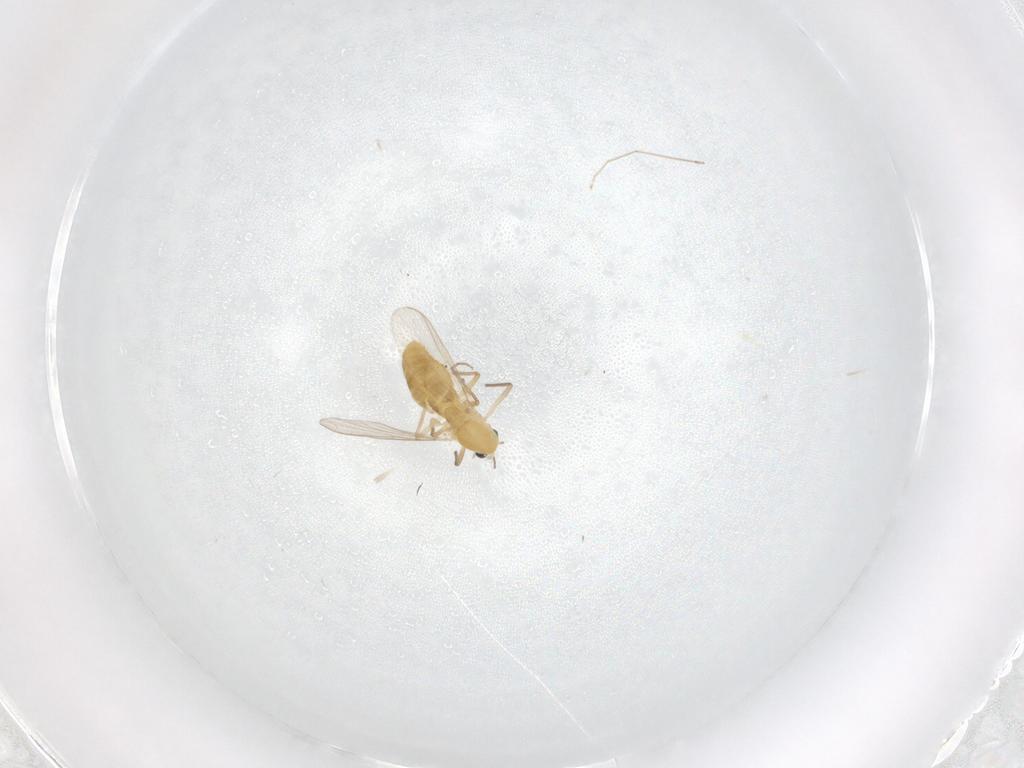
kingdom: Animalia
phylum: Arthropoda
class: Insecta
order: Diptera
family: Chironomidae
